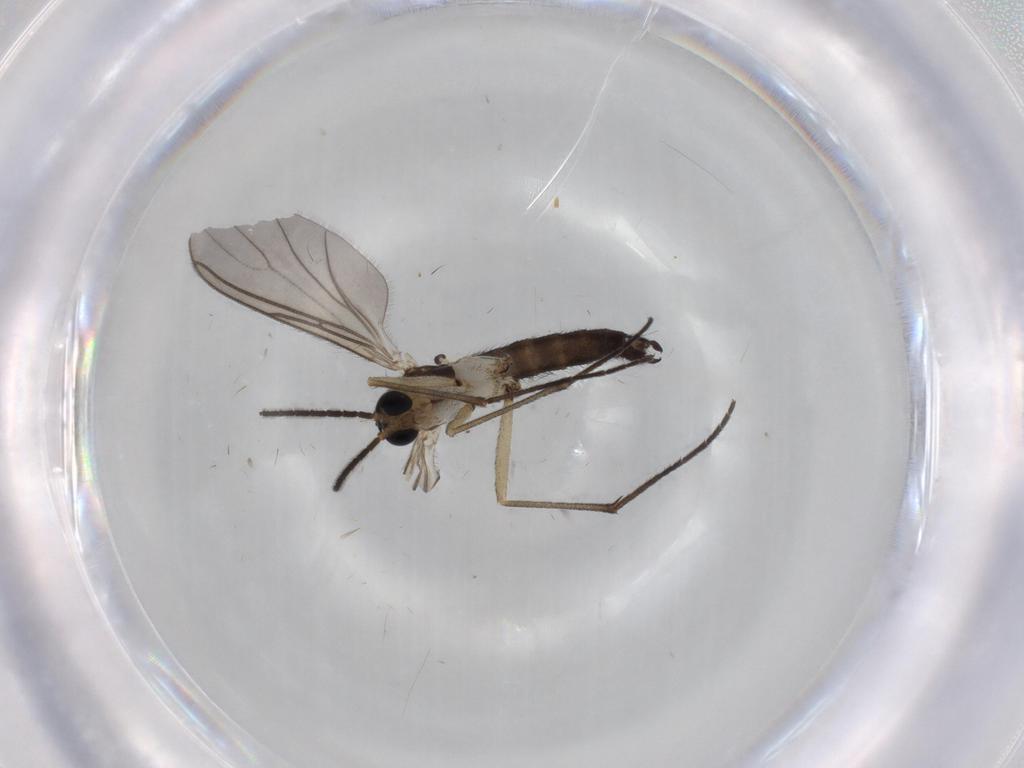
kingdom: Animalia
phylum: Arthropoda
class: Insecta
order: Diptera
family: Sciaridae
